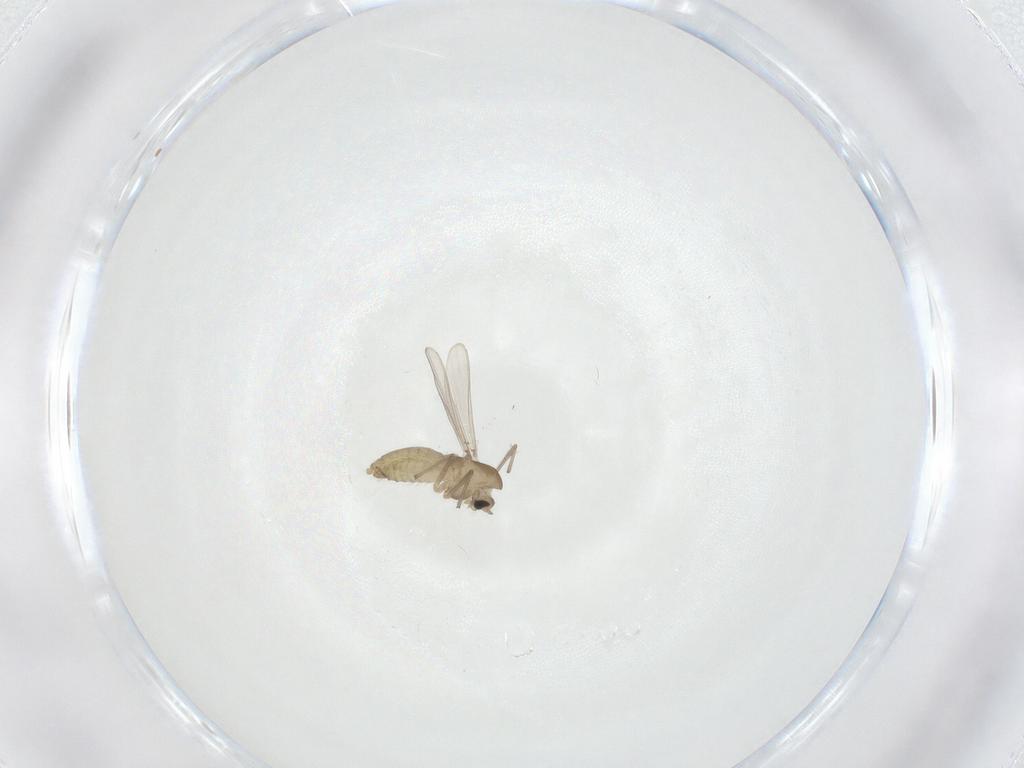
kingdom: Animalia
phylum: Arthropoda
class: Insecta
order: Diptera
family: Chironomidae
